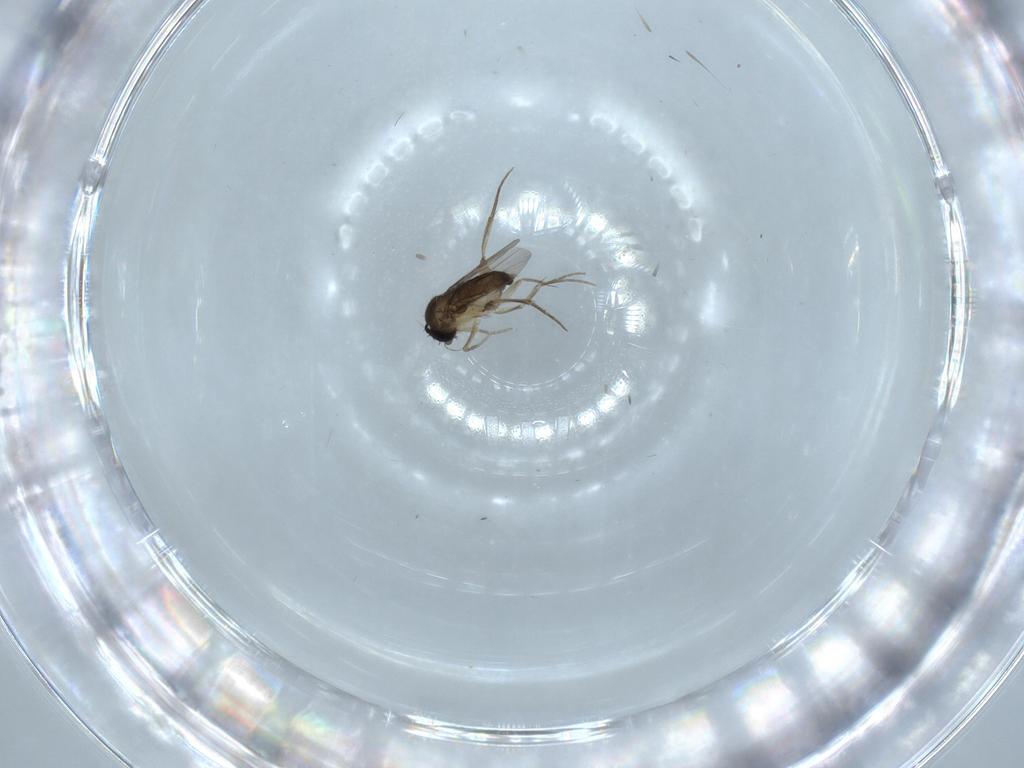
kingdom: Animalia
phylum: Arthropoda
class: Insecta
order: Diptera
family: Phoridae
